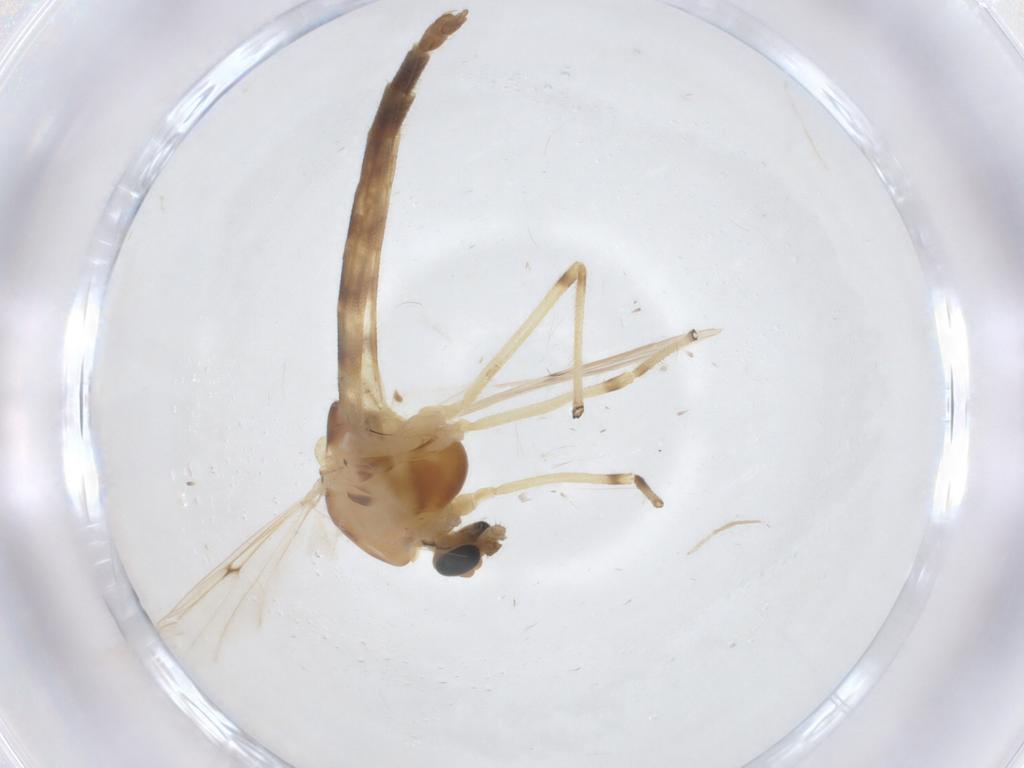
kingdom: Animalia
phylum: Arthropoda
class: Insecta
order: Diptera
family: Chironomidae
